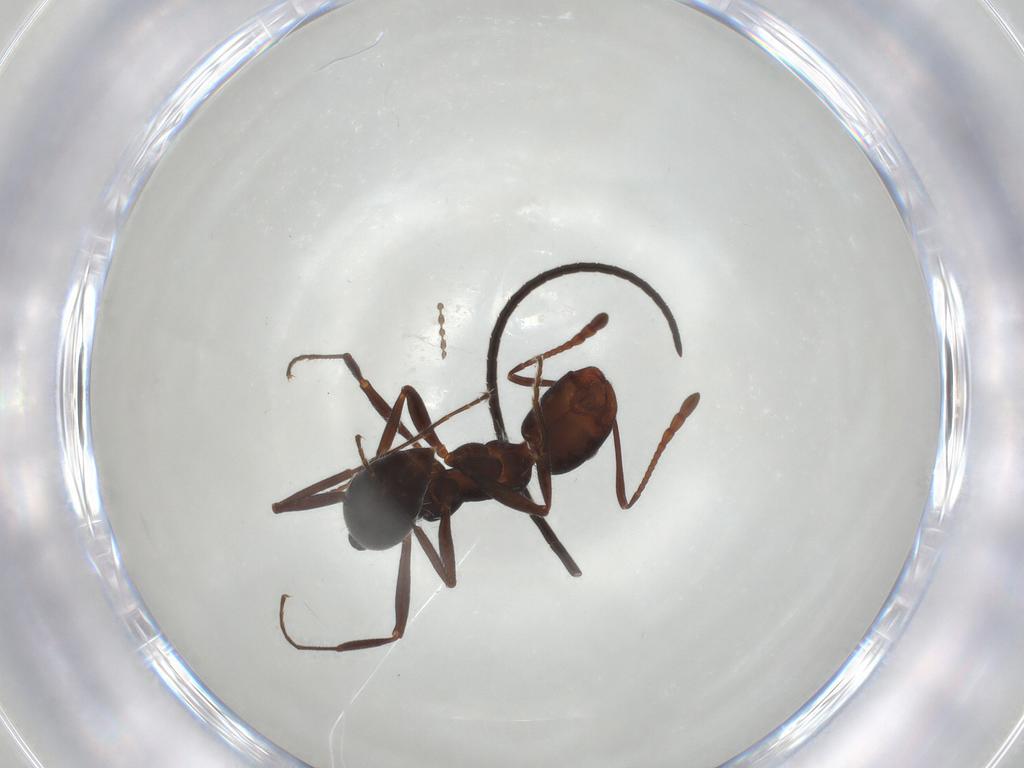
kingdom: Animalia
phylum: Arthropoda
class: Insecta
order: Hymenoptera
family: Ichneumonidae
